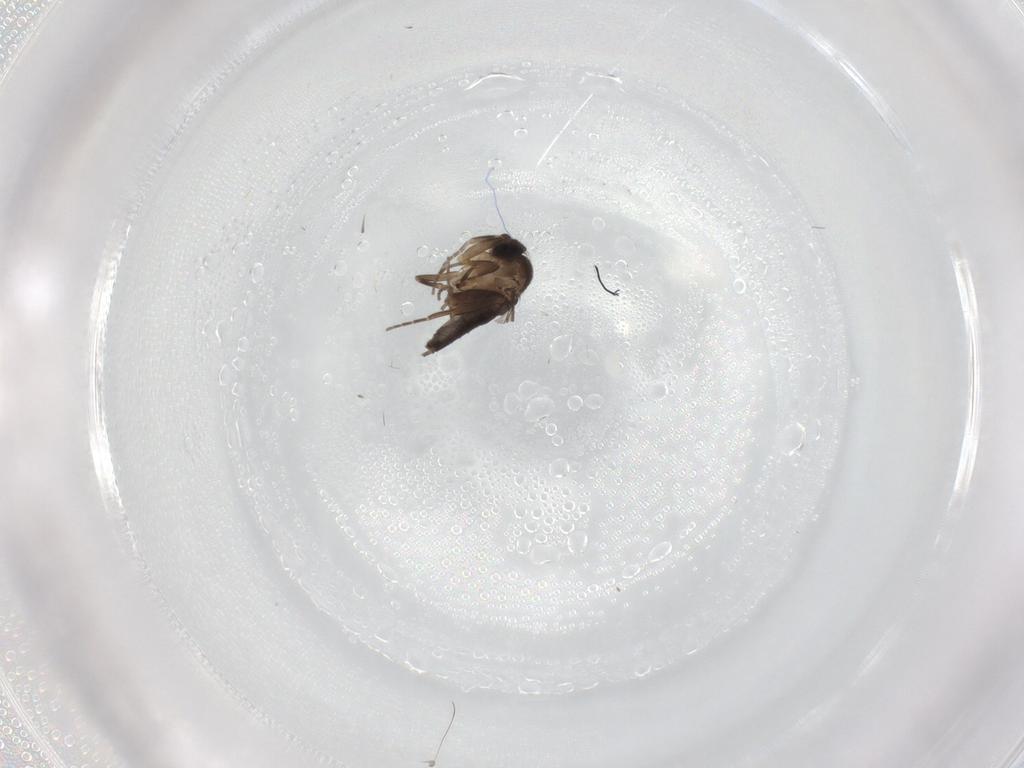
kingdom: Animalia
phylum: Arthropoda
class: Insecta
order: Diptera
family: Phoridae
